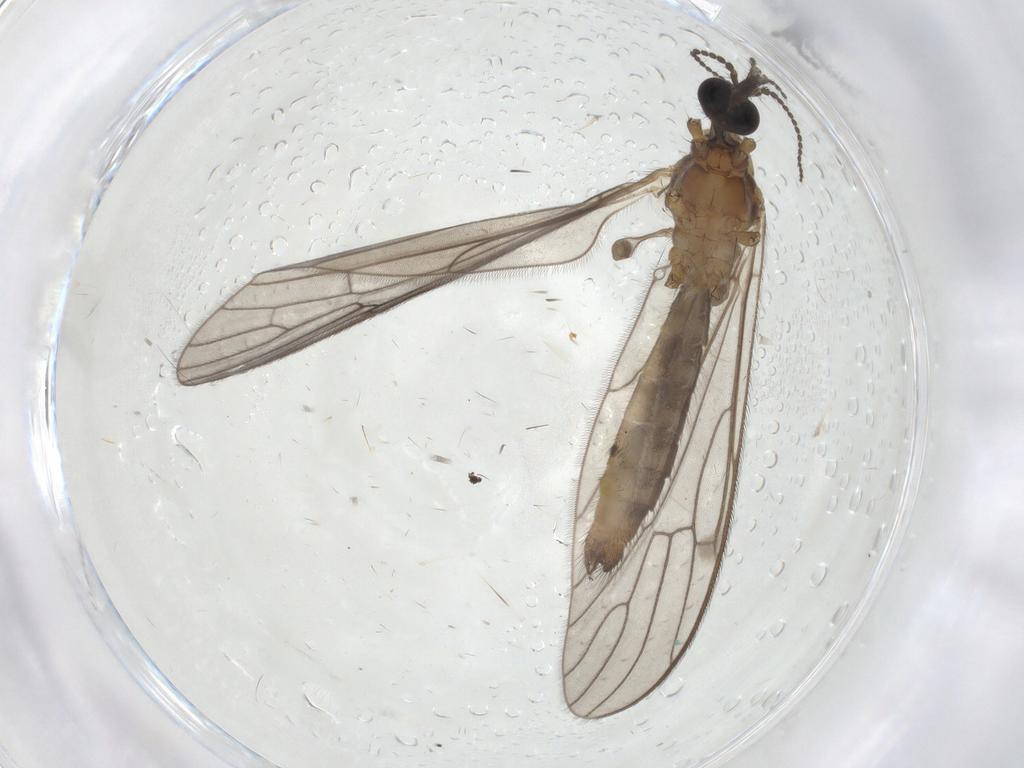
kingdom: Animalia
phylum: Arthropoda
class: Insecta
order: Diptera
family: Limoniidae
